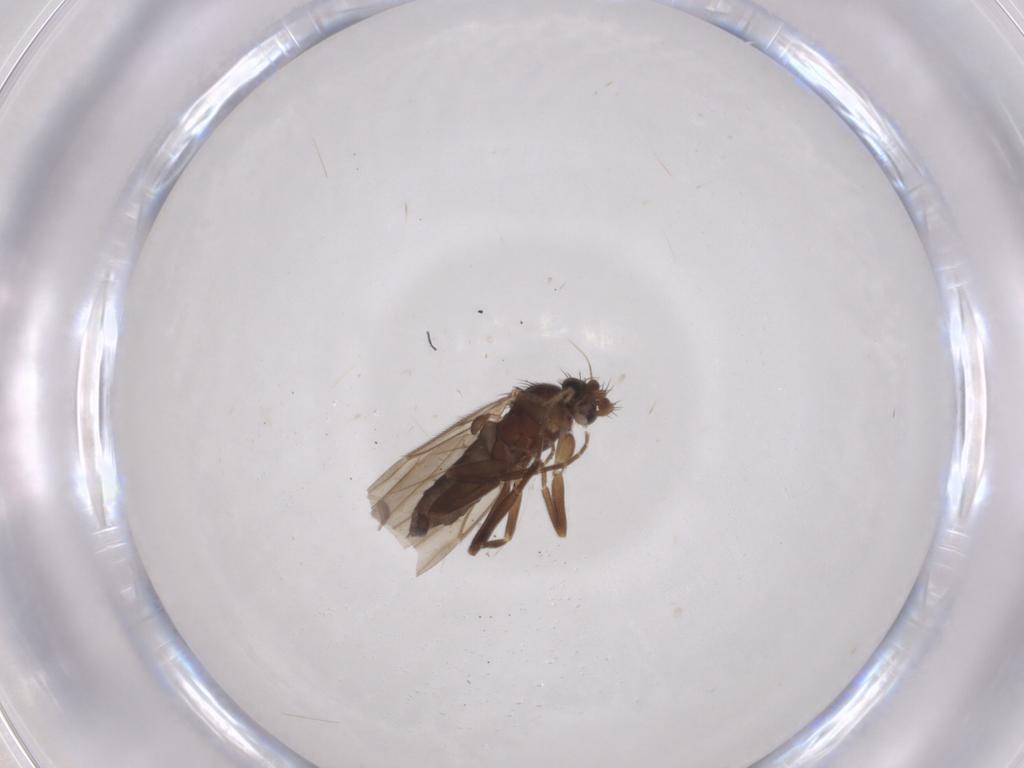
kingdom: Animalia
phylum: Arthropoda
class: Insecta
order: Diptera
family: Phoridae
